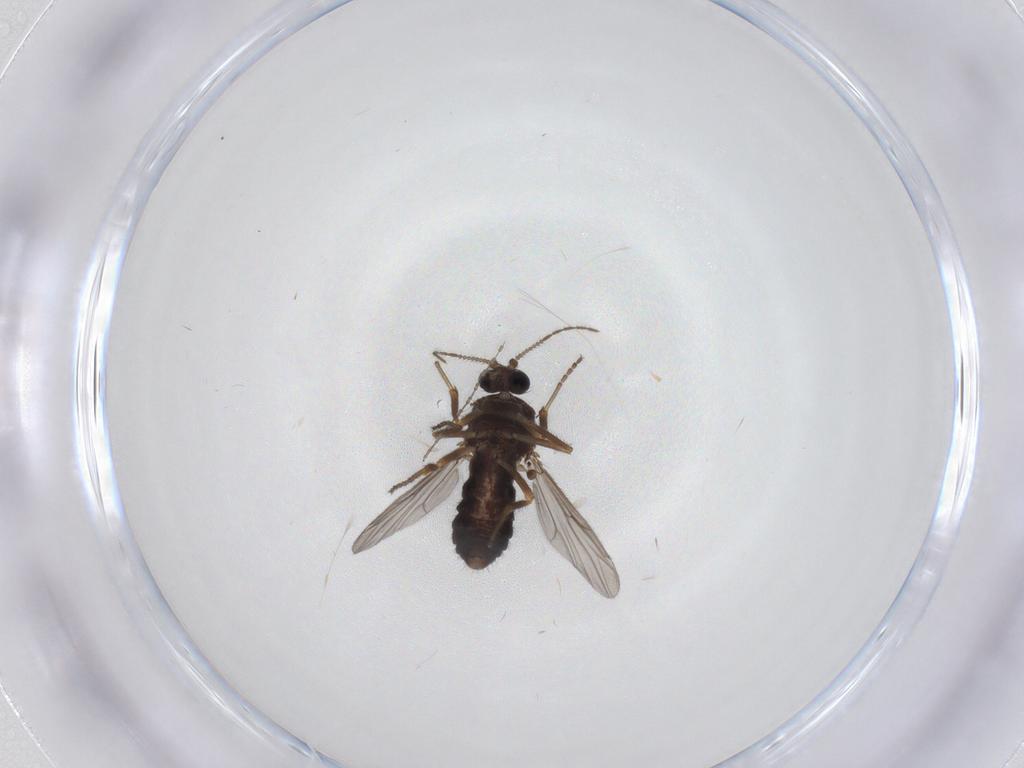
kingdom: Animalia
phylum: Arthropoda
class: Insecta
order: Diptera
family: Ceratopogonidae
